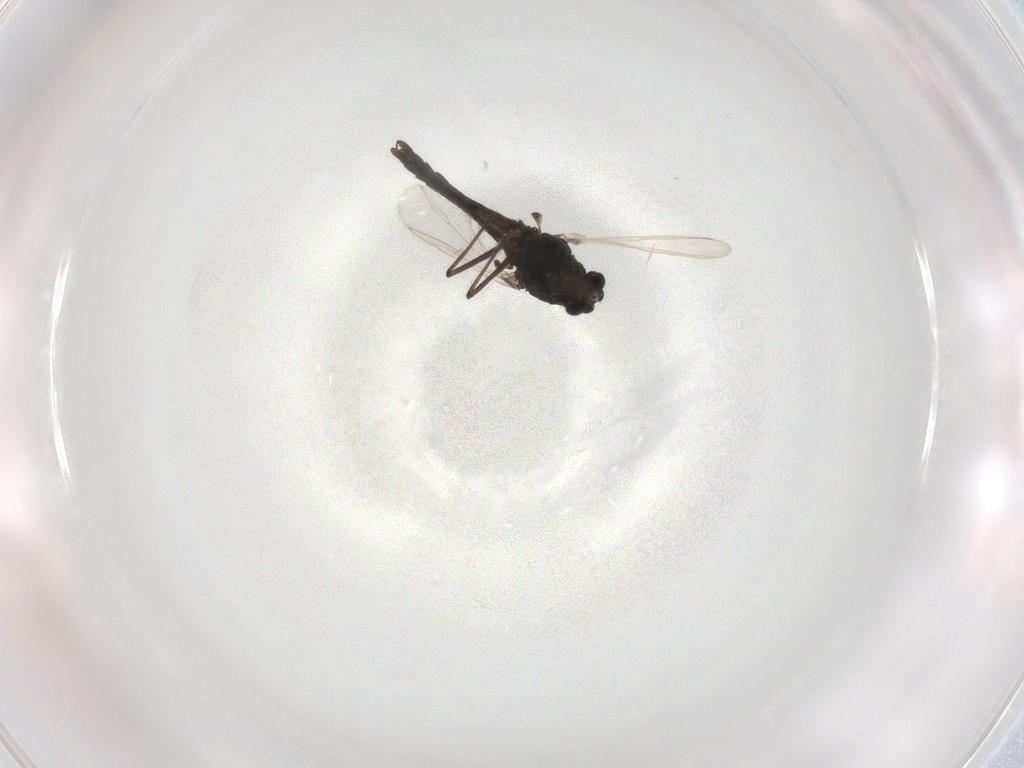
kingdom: Animalia
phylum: Arthropoda
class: Insecta
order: Diptera
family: Chironomidae
